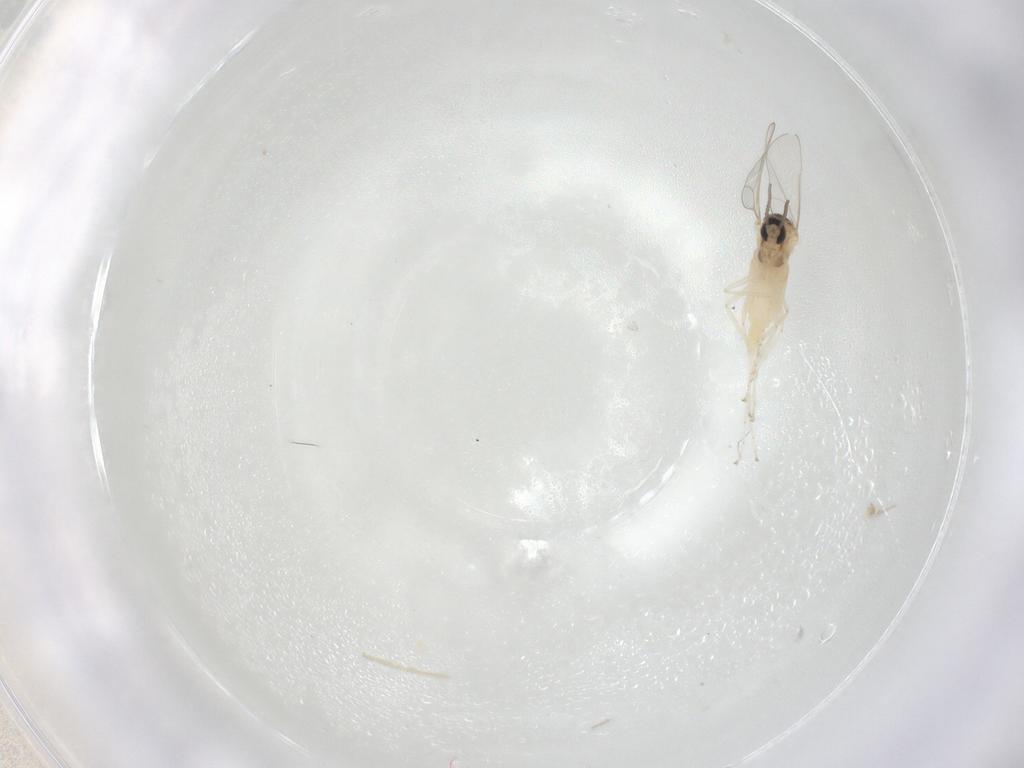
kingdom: Animalia
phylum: Arthropoda
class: Insecta
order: Diptera
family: Cecidomyiidae
